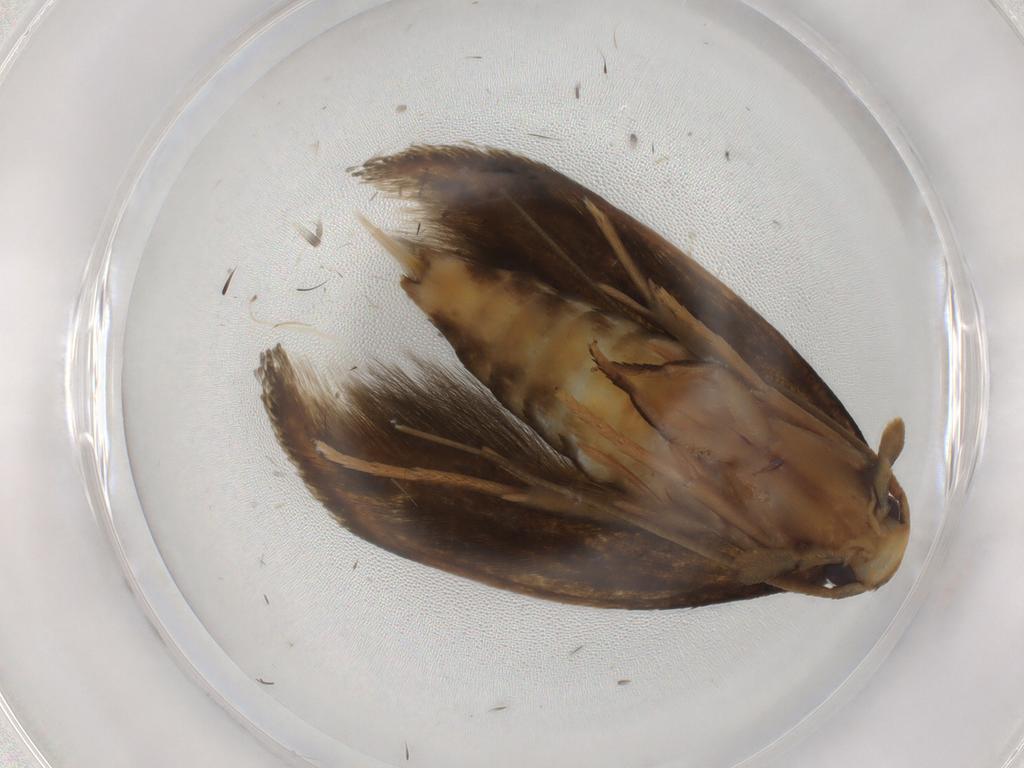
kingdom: Animalia
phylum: Arthropoda
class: Insecta
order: Lepidoptera
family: Tineidae
